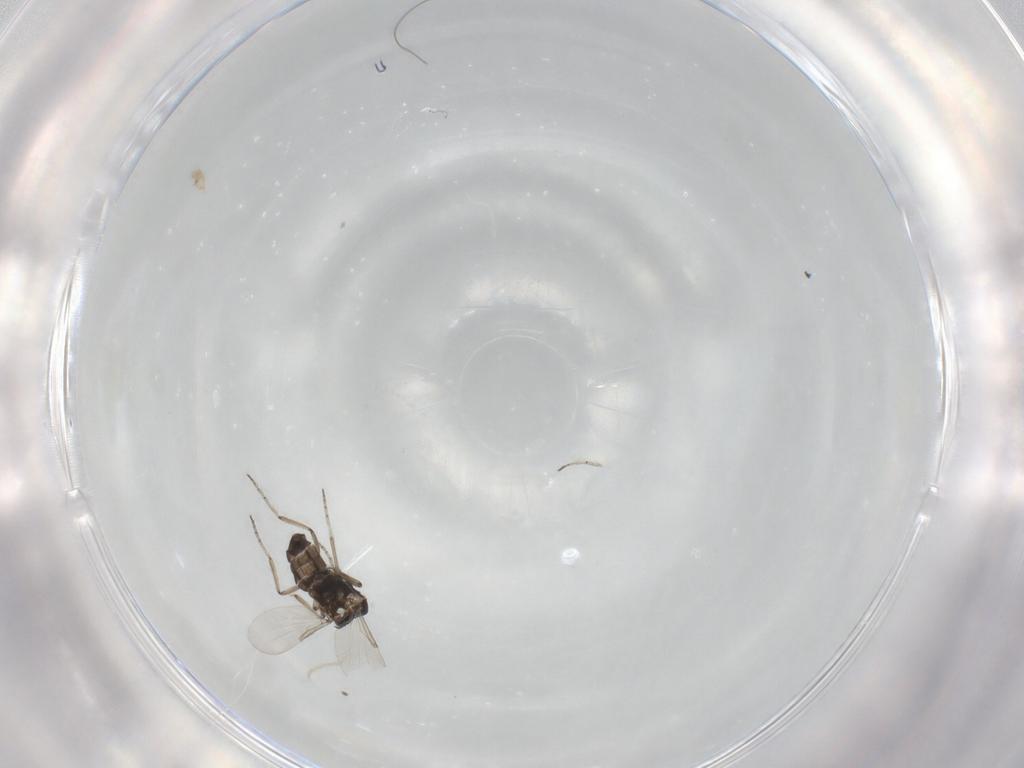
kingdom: Animalia
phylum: Arthropoda
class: Insecta
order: Diptera
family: Ceratopogonidae
